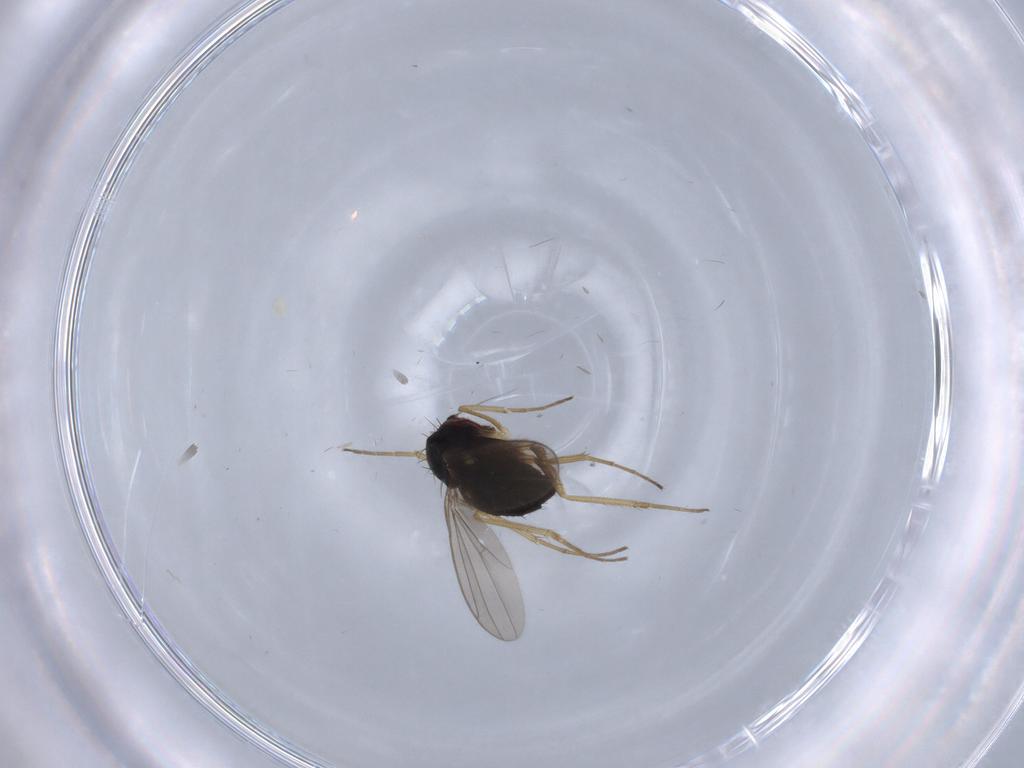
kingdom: Animalia
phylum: Arthropoda
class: Insecta
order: Diptera
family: Dolichopodidae
